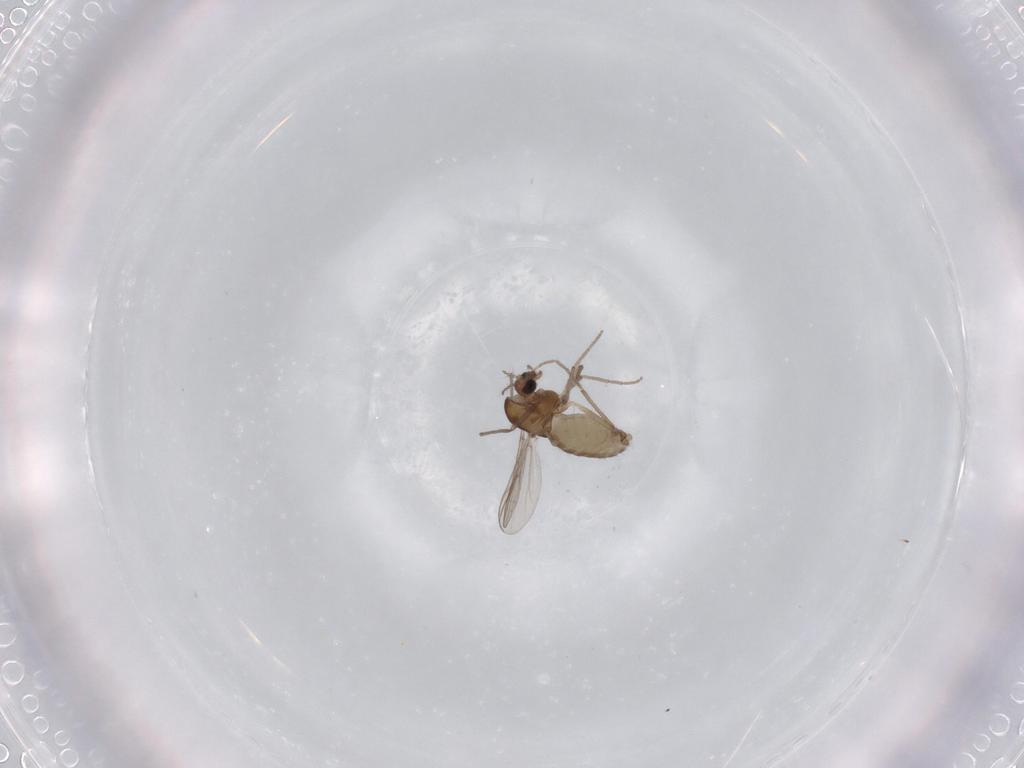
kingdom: Animalia
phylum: Arthropoda
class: Insecta
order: Diptera
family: Chironomidae
